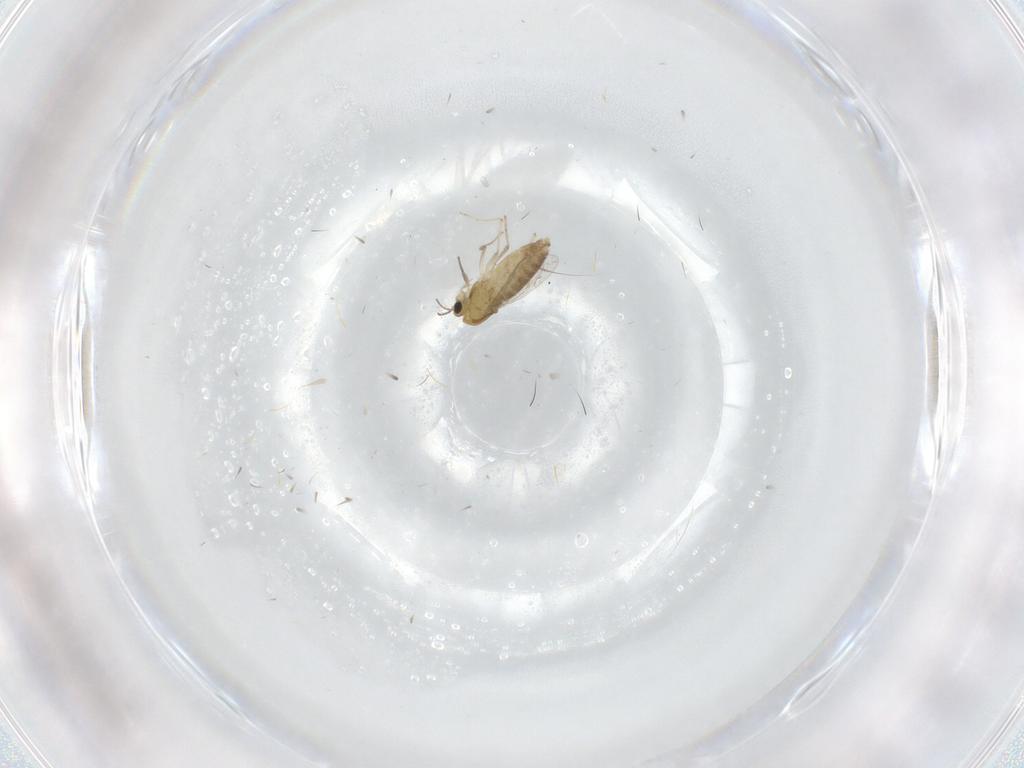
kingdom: Animalia
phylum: Arthropoda
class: Insecta
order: Diptera
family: Chironomidae
